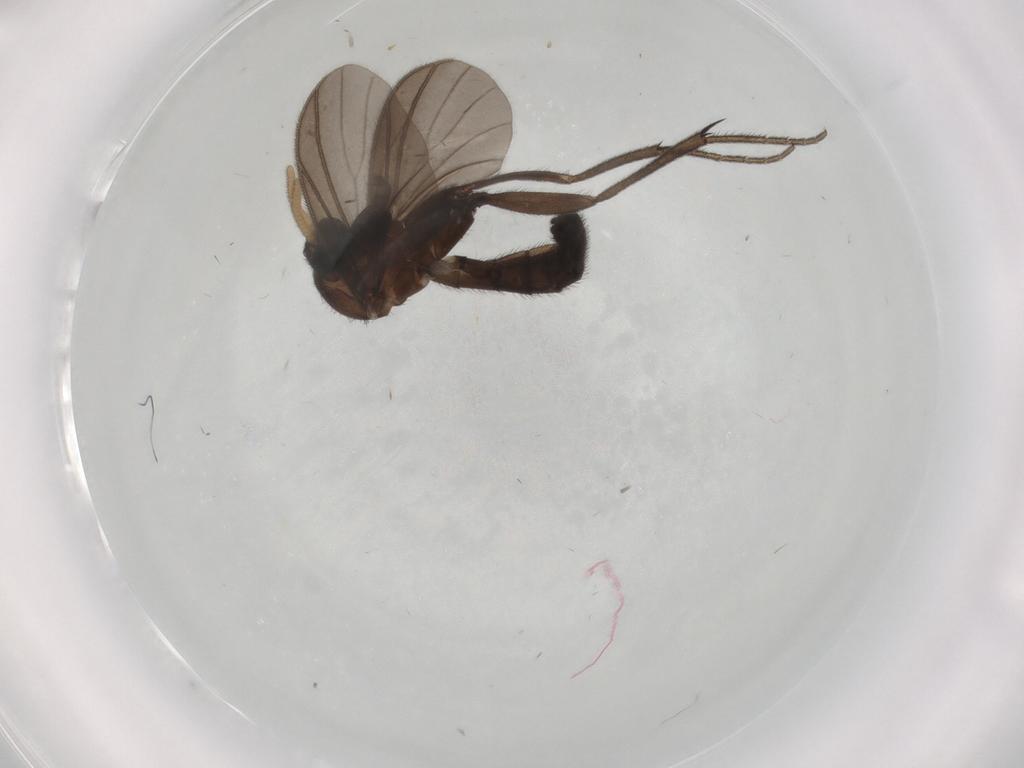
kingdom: Animalia
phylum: Arthropoda
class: Insecta
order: Diptera
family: Phoridae
